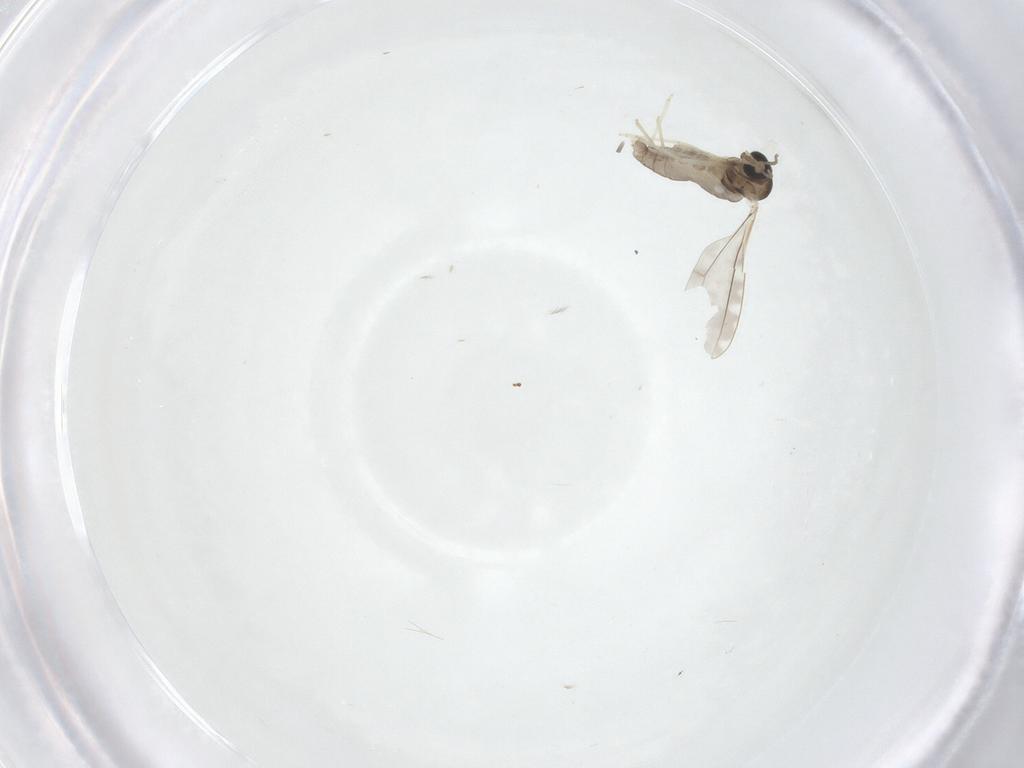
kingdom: Animalia
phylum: Arthropoda
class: Insecta
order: Diptera
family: Cecidomyiidae
